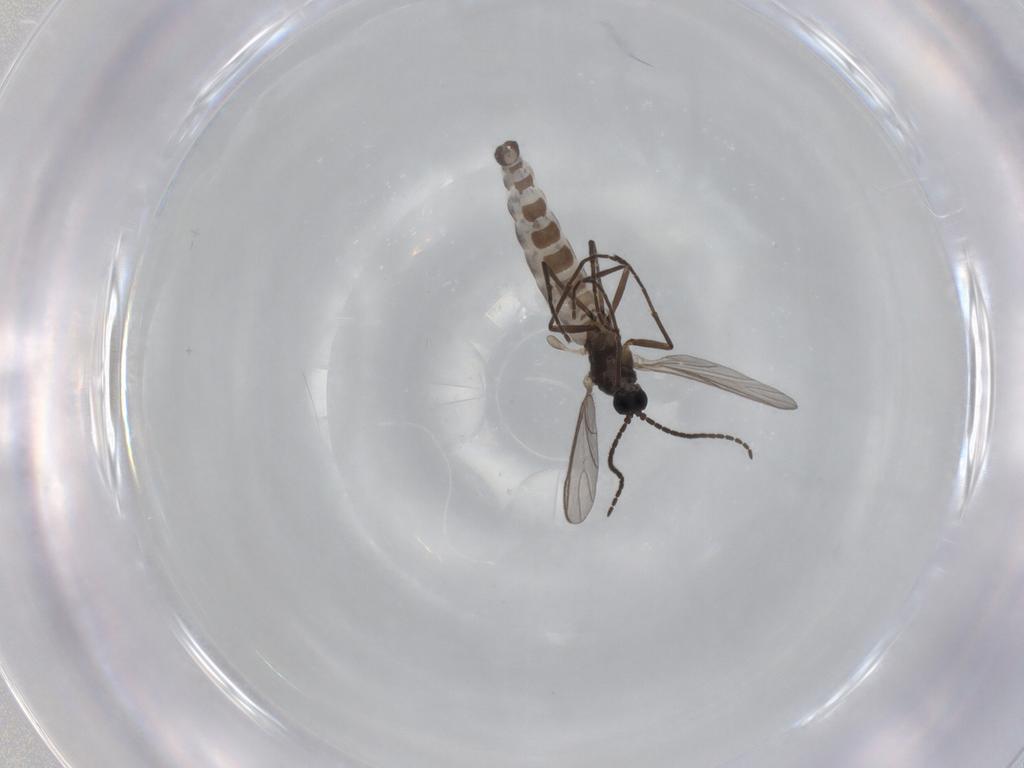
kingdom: Animalia
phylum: Arthropoda
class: Insecta
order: Diptera
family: Sciaridae
